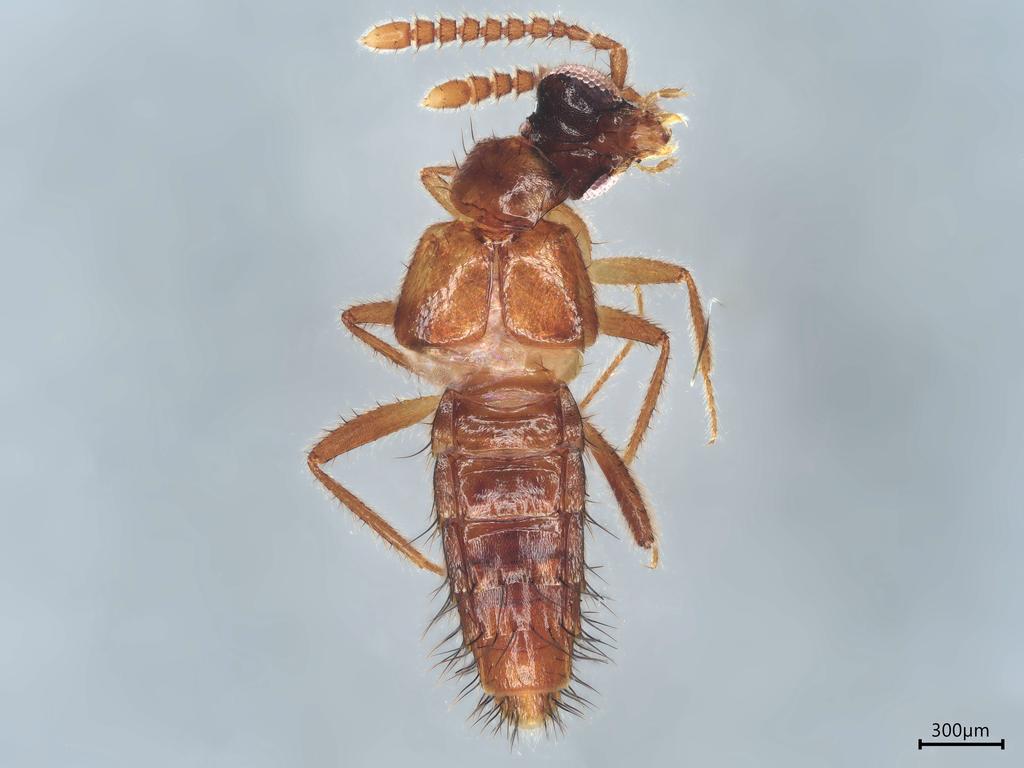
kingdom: Animalia
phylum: Arthropoda
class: Insecta
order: Coleoptera
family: Staphylinidae
